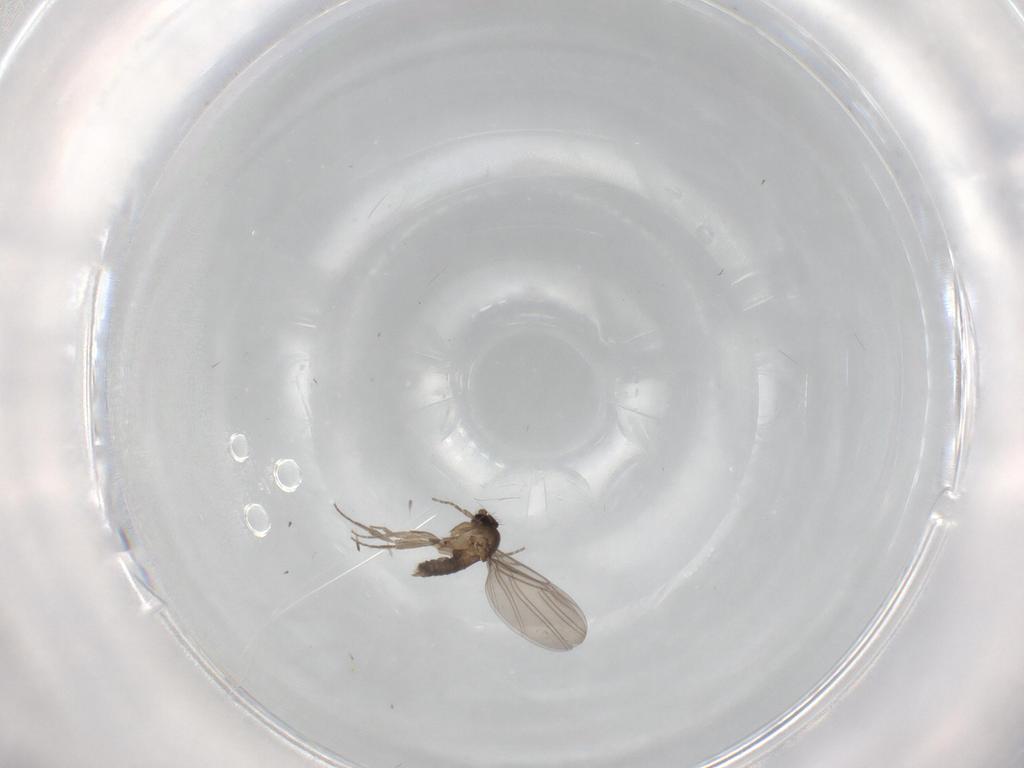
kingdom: Animalia
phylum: Arthropoda
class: Insecta
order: Diptera
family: Phoridae
